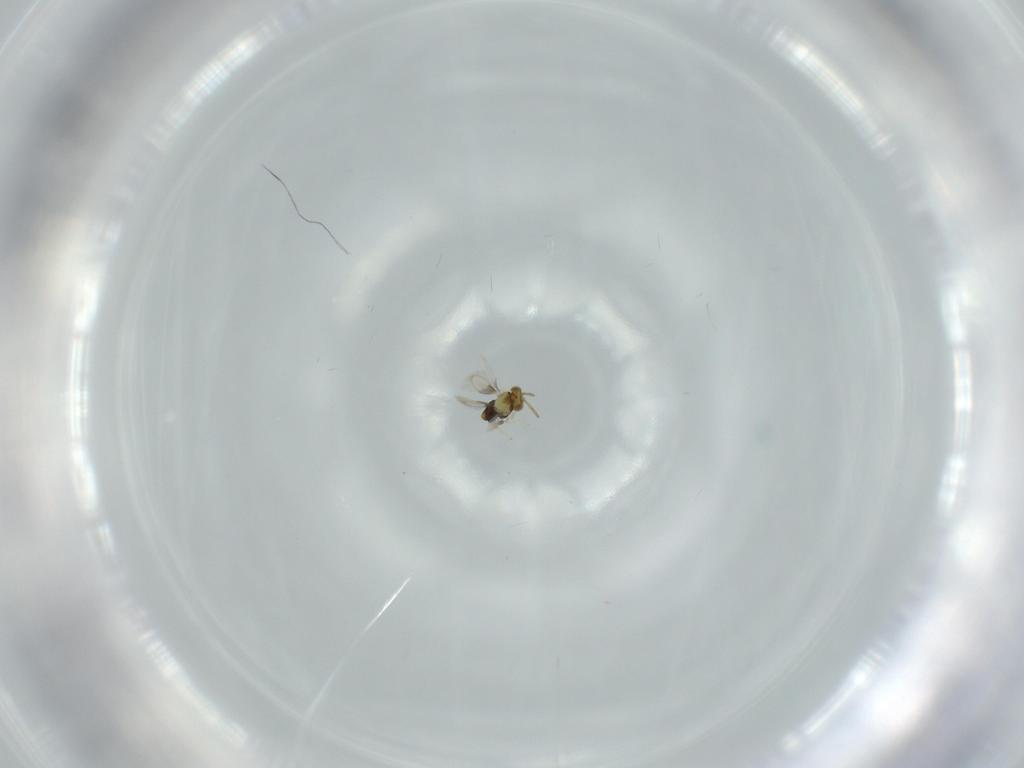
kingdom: Animalia
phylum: Arthropoda
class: Insecta
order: Hymenoptera
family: Aphelinidae
